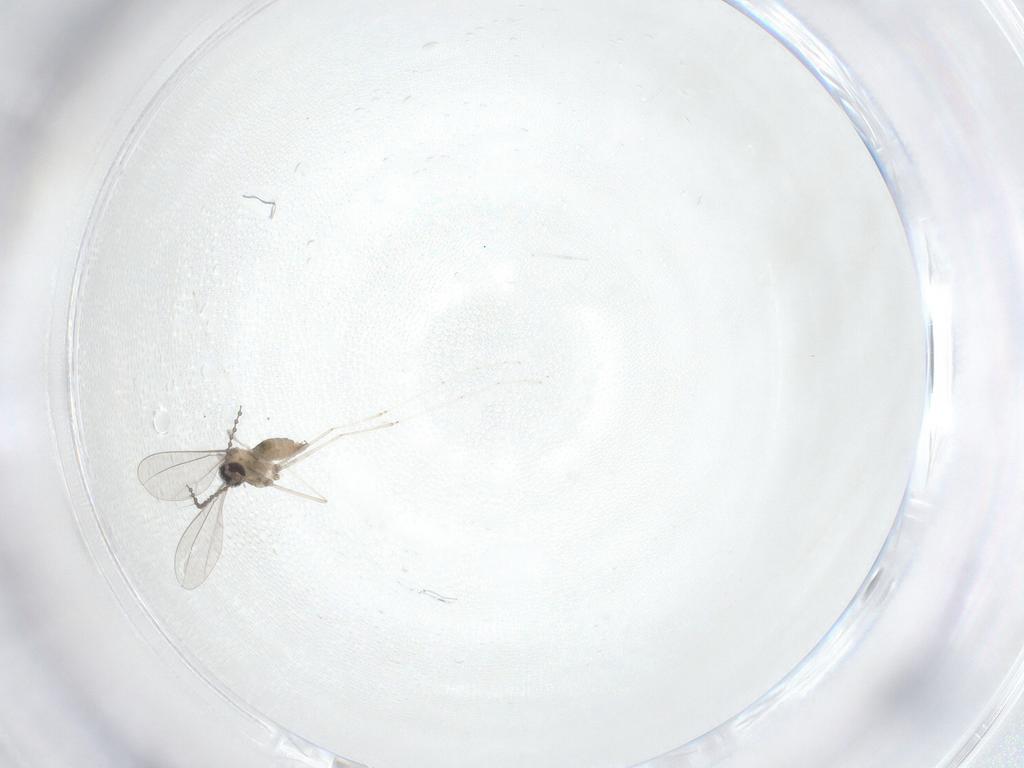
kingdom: Animalia
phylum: Arthropoda
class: Insecta
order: Diptera
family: Cecidomyiidae
